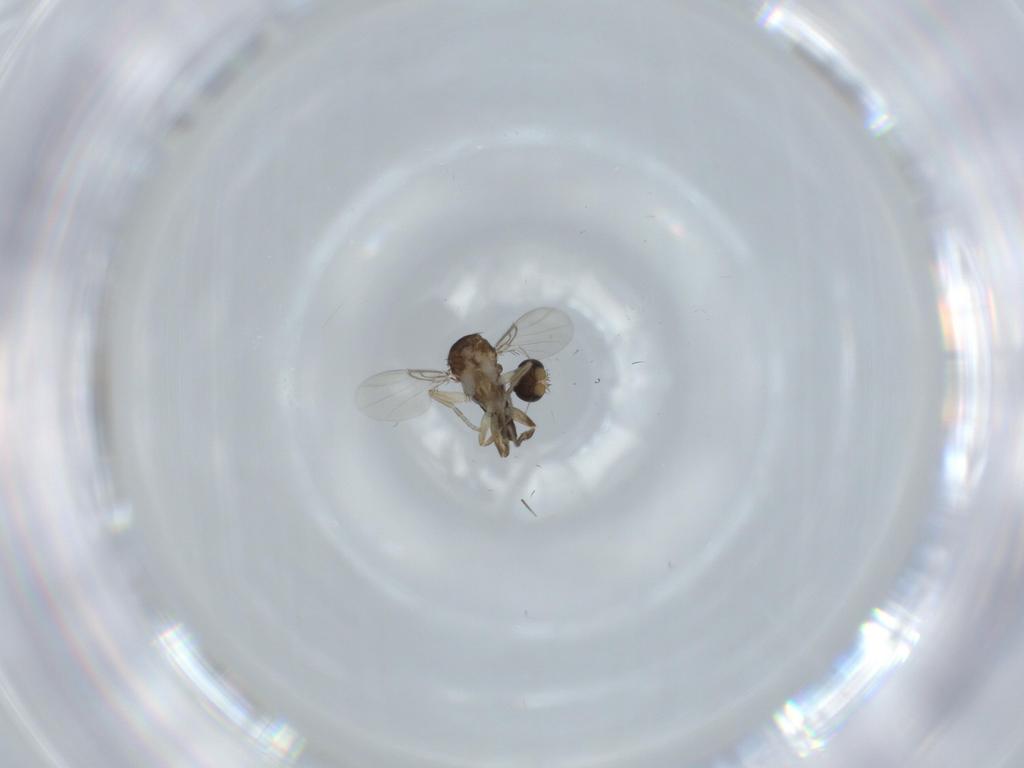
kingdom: Animalia
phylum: Arthropoda
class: Insecta
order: Diptera
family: Phoridae
